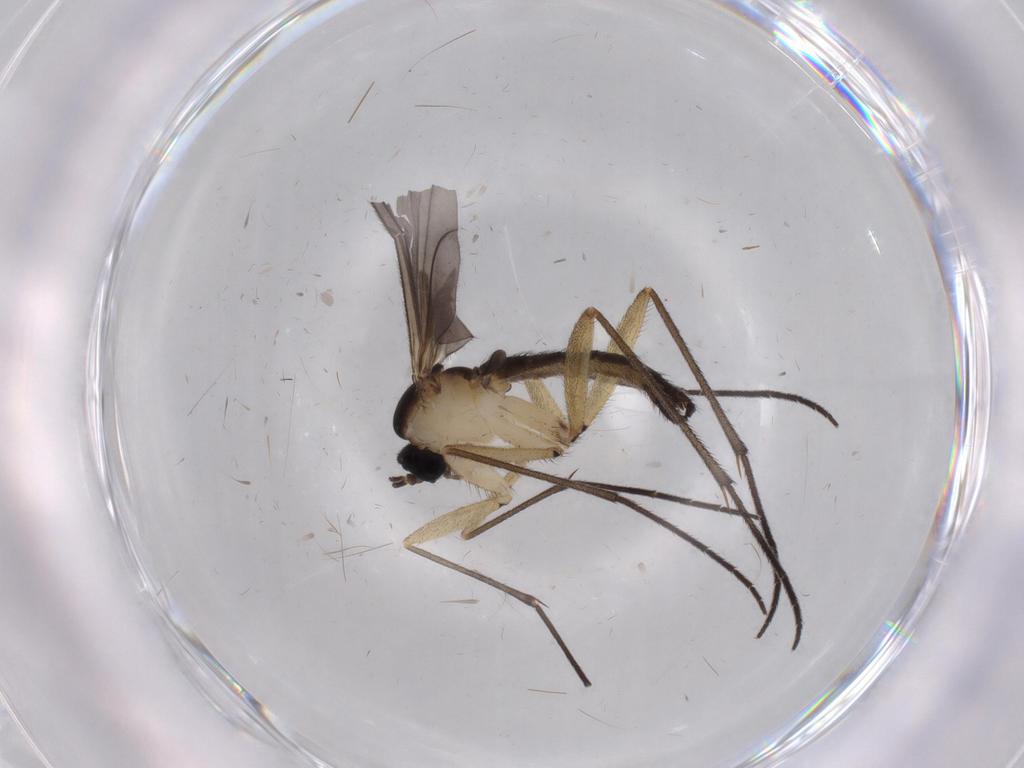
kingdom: Animalia
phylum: Arthropoda
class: Insecta
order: Diptera
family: Sciaridae
